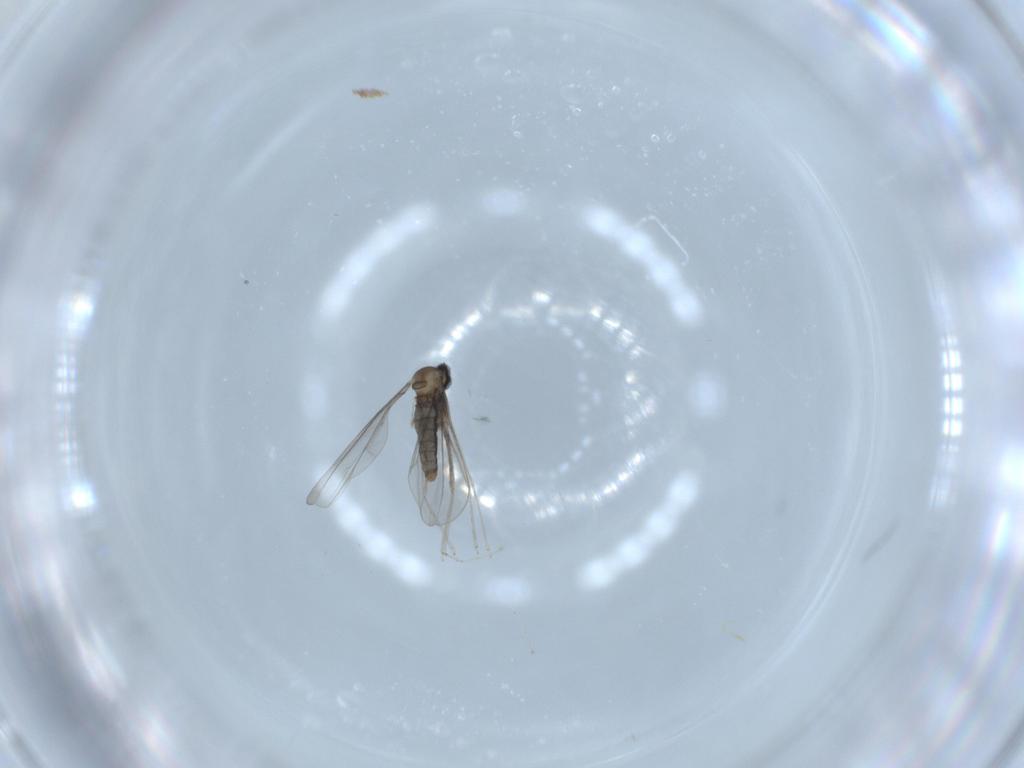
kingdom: Animalia
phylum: Arthropoda
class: Insecta
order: Diptera
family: Cecidomyiidae
